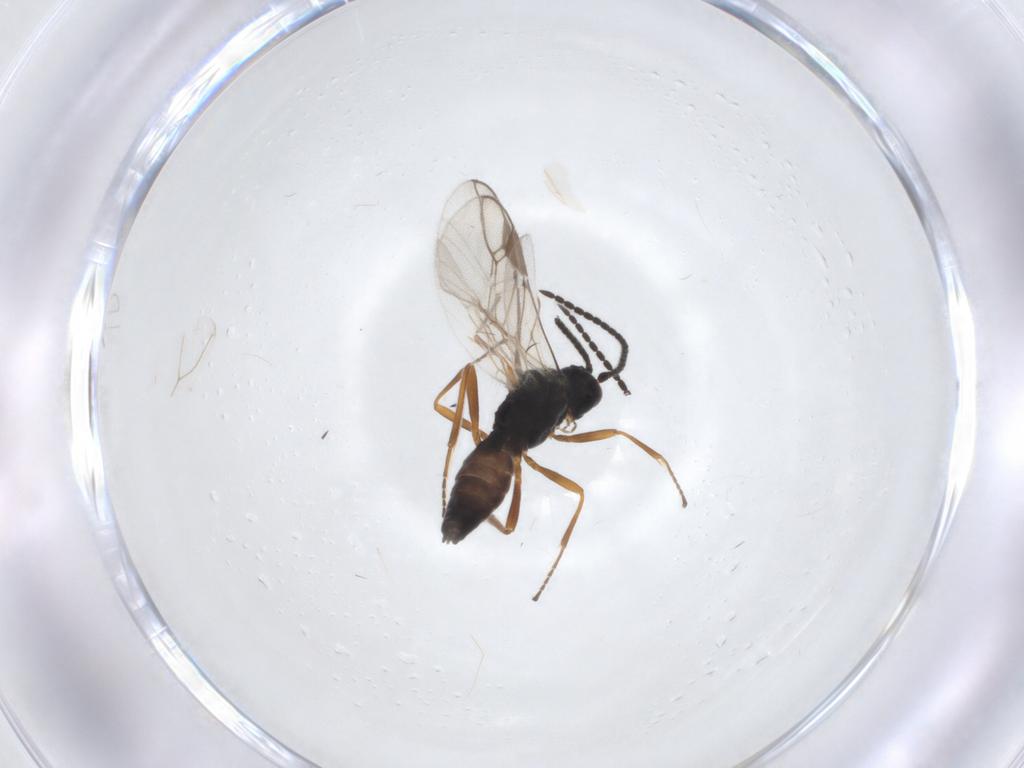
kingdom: Animalia
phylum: Arthropoda
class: Insecta
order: Hymenoptera
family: Braconidae
